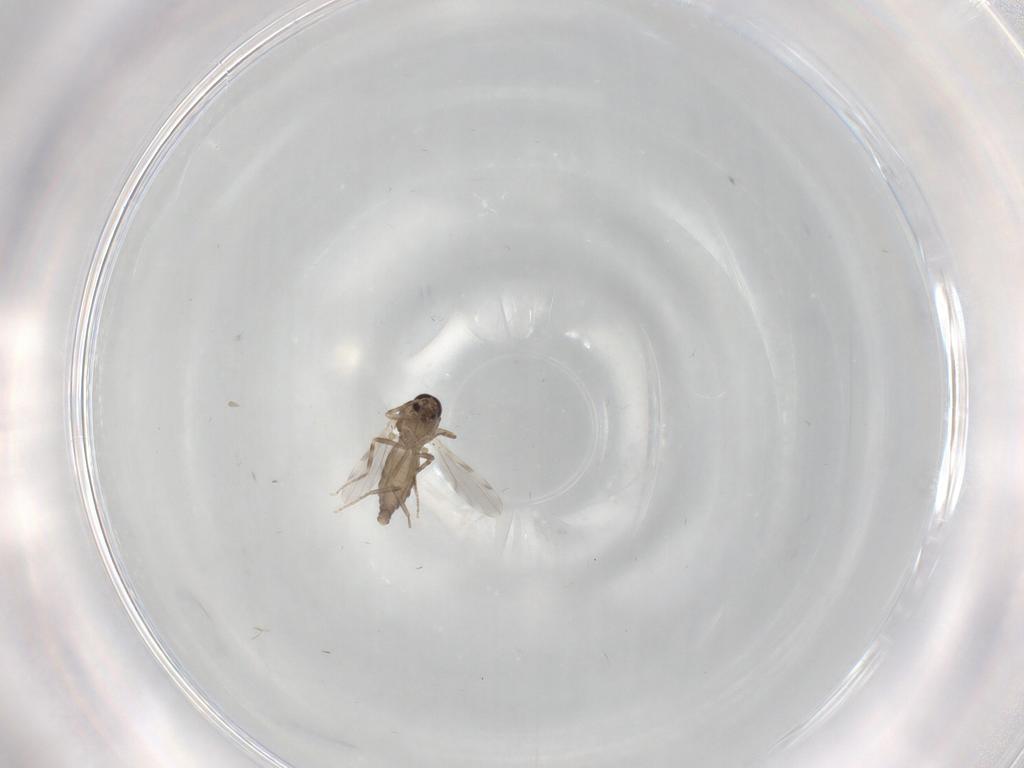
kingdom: Animalia
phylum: Arthropoda
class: Insecta
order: Diptera
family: Ceratopogonidae
